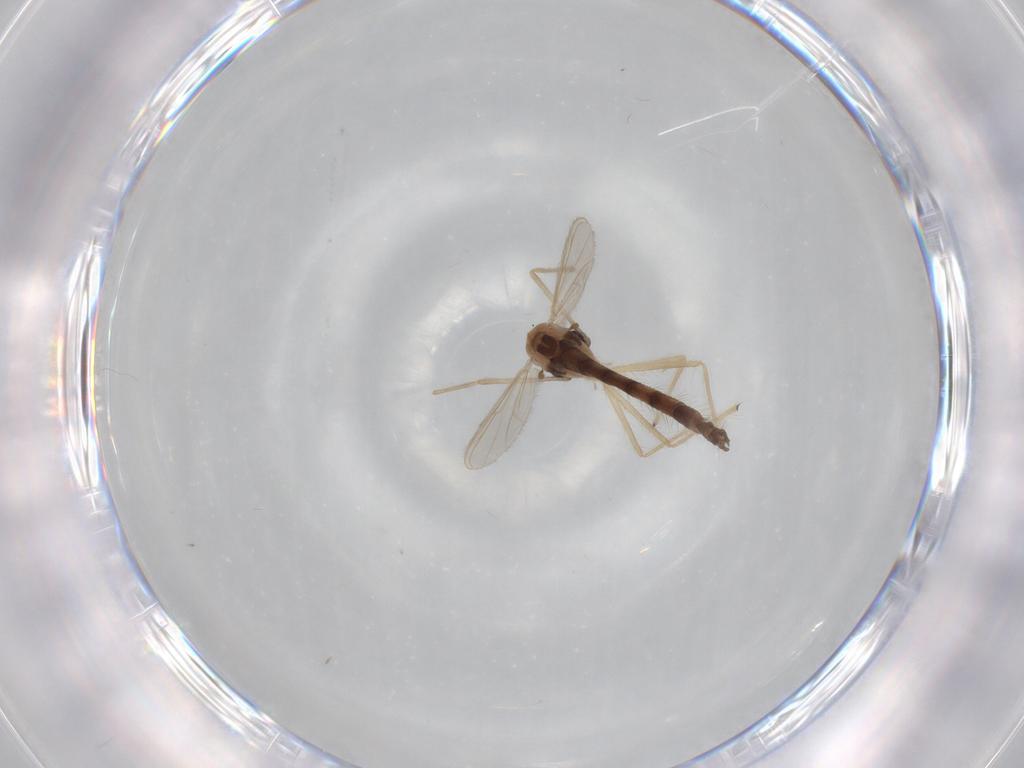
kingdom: Animalia
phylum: Arthropoda
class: Insecta
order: Diptera
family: Chironomidae
